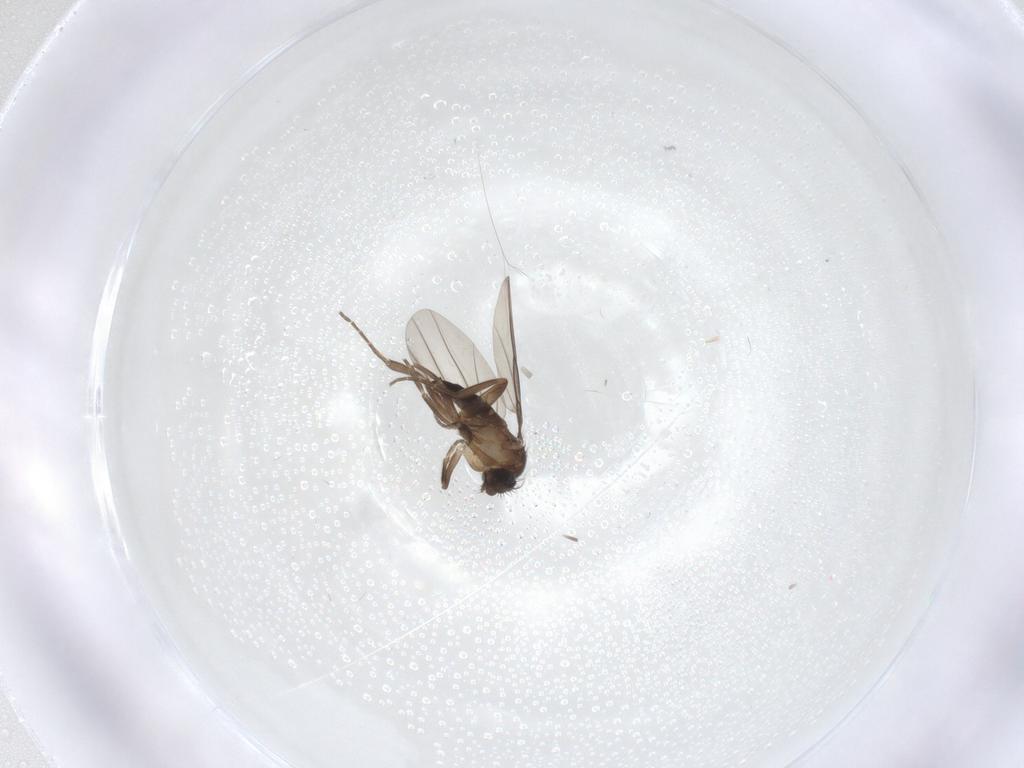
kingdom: Animalia
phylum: Arthropoda
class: Insecta
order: Diptera
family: Phoridae
